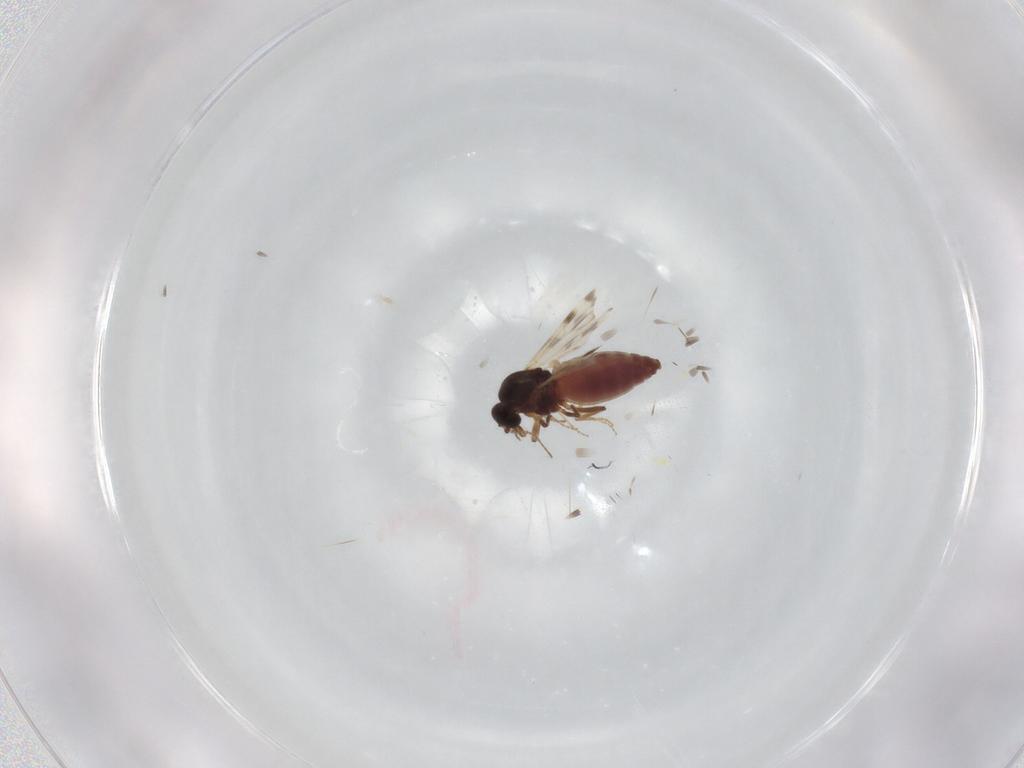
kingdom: Animalia
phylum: Arthropoda
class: Insecta
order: Diptera
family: Ceratopogonidae
